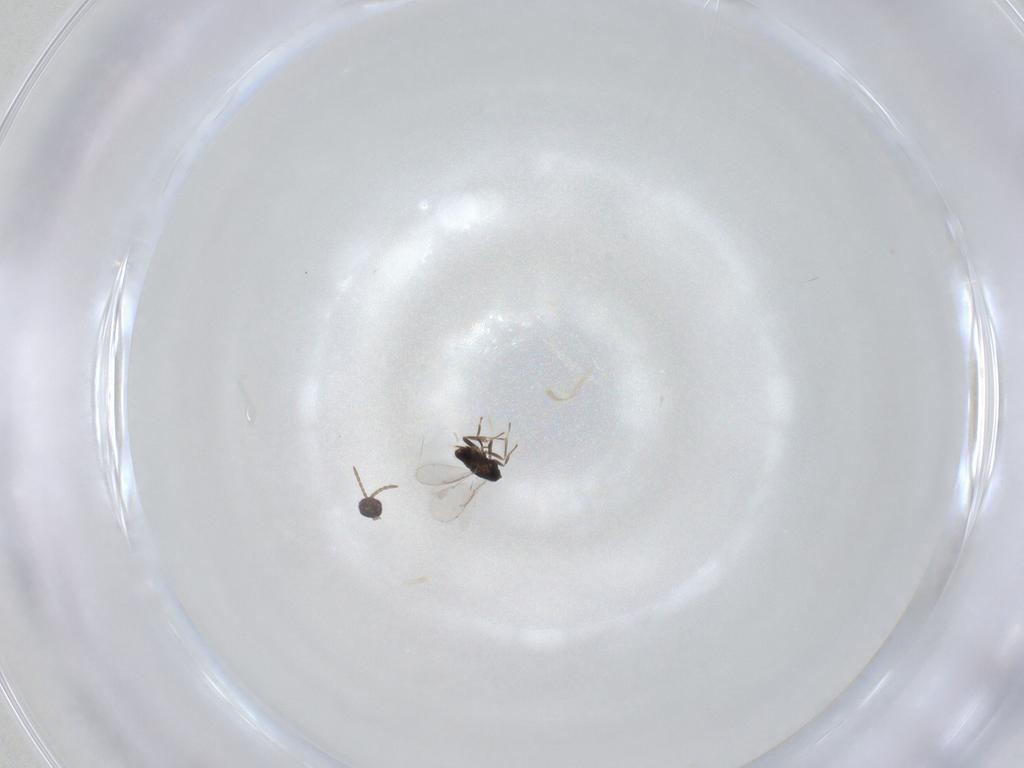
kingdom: Animalia
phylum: Arthropoda
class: Insecta
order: Hymenoptera
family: Aphelinidae
